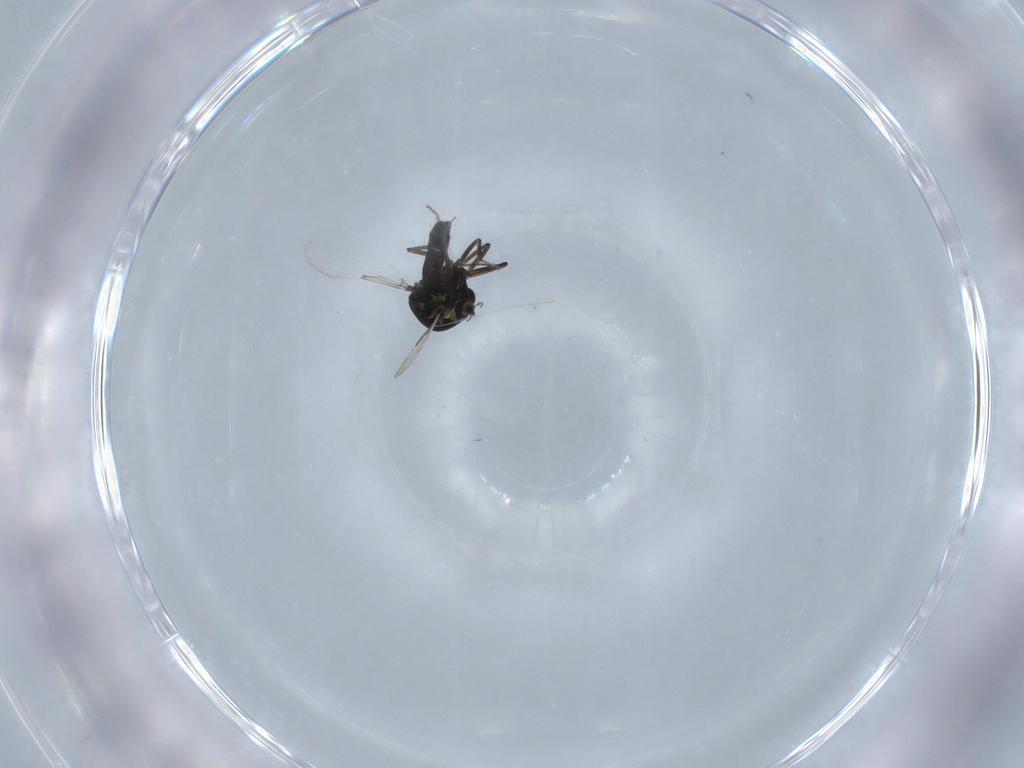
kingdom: Animalia
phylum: Arthropoda
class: Insecta
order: Diptera
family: Ceratopogonidae
